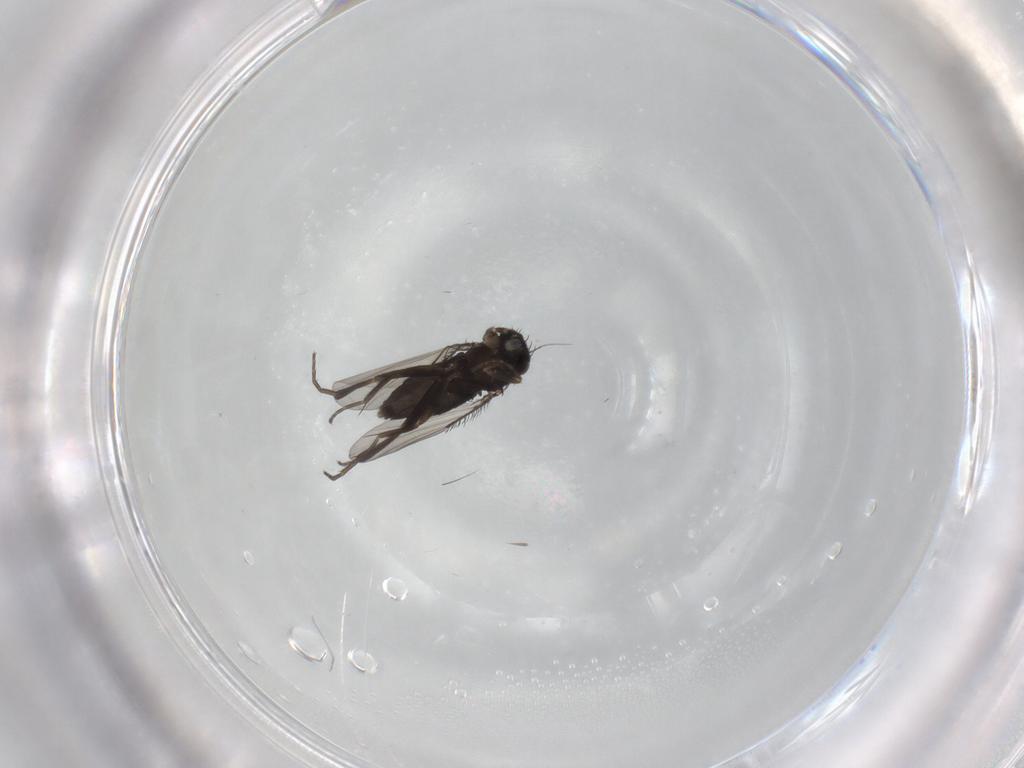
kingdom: Animalia
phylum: Arthropoda
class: Insecta
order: Diptera
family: Phoridae
